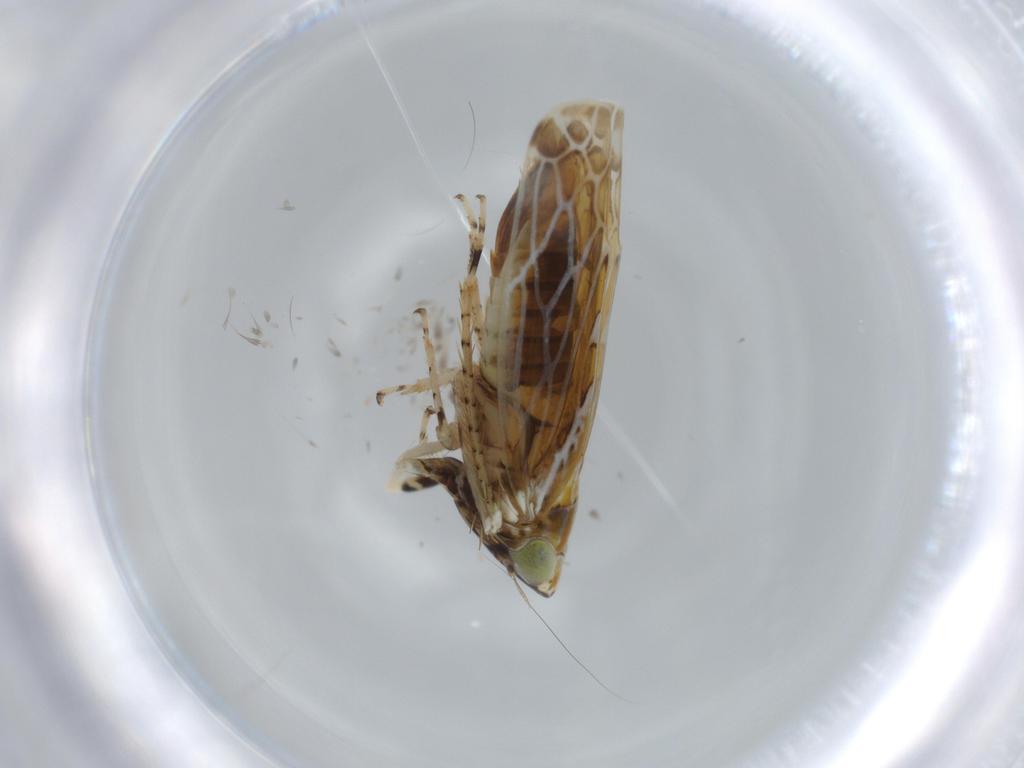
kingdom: Animalia
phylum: Arthropoda
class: Insecta
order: Hemiptera
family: Cicadellidae
